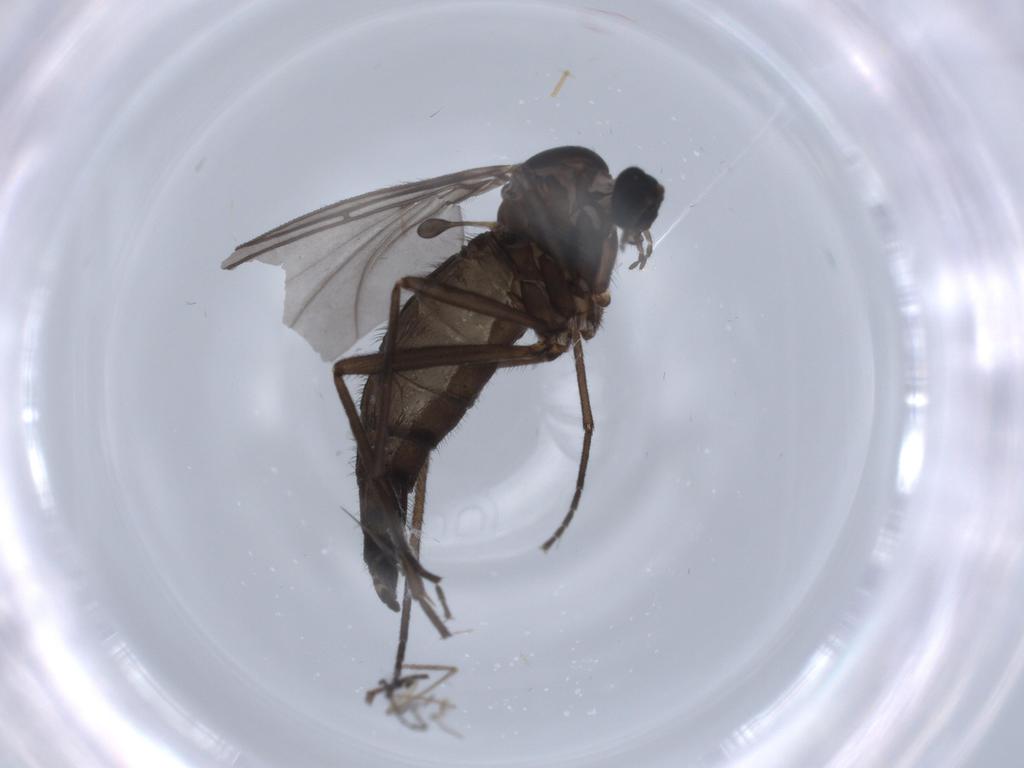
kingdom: Animalia
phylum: Arthropoda
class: Insecta
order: Diptera
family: Sciaridae
